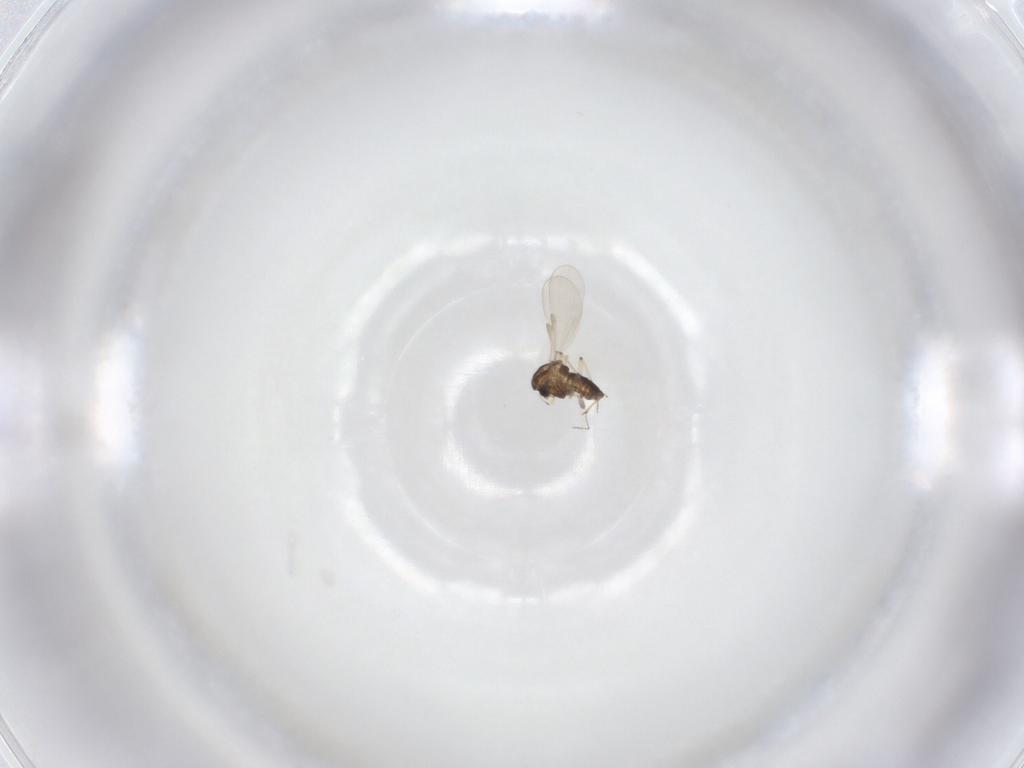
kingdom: Animalia
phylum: Arthropoda
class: Insecta
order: Diptera
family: Chironomidae
